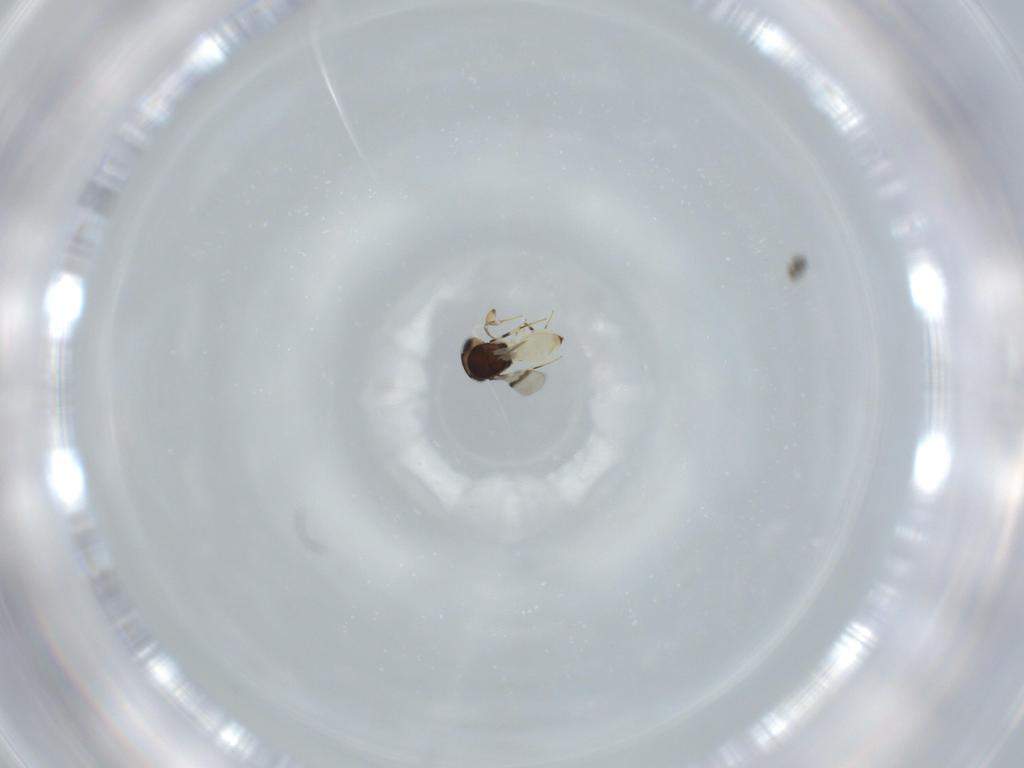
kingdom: Animalia
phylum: Arthropoda
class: Insecta
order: Hymenoptera
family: Scelionidae
